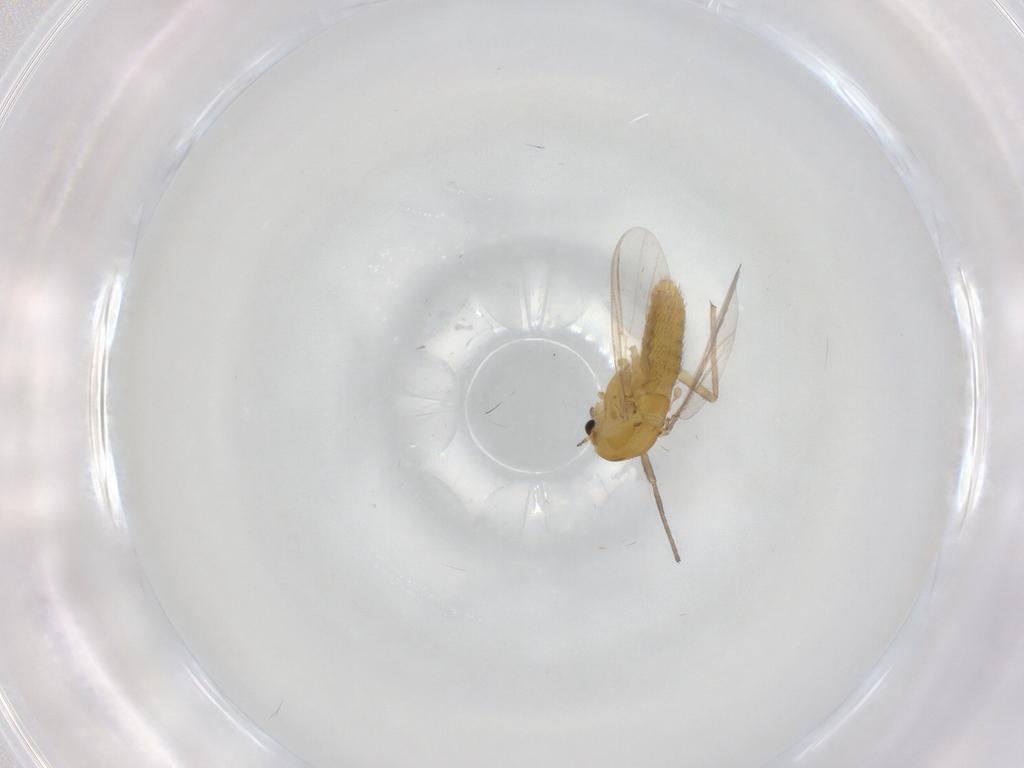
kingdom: Animalia
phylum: Arthropoda
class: Insecta
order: Diptera
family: Chironomidae
